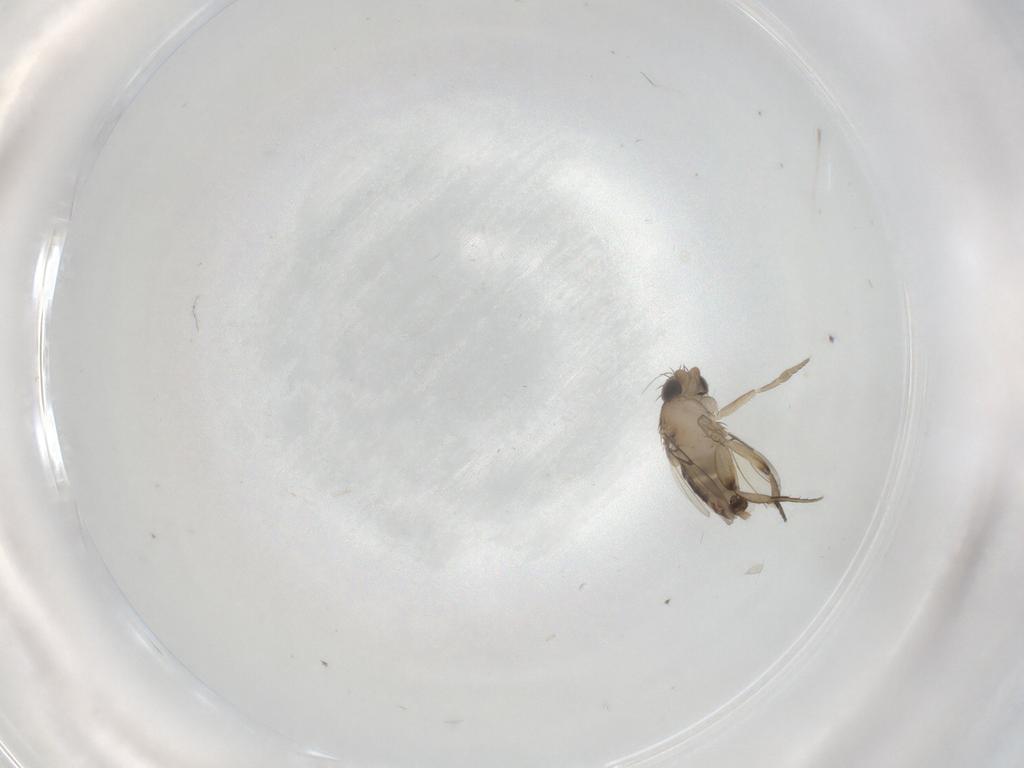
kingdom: Animalia
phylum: Arthropoda
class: Insecta
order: Diptera
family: Phoridae
